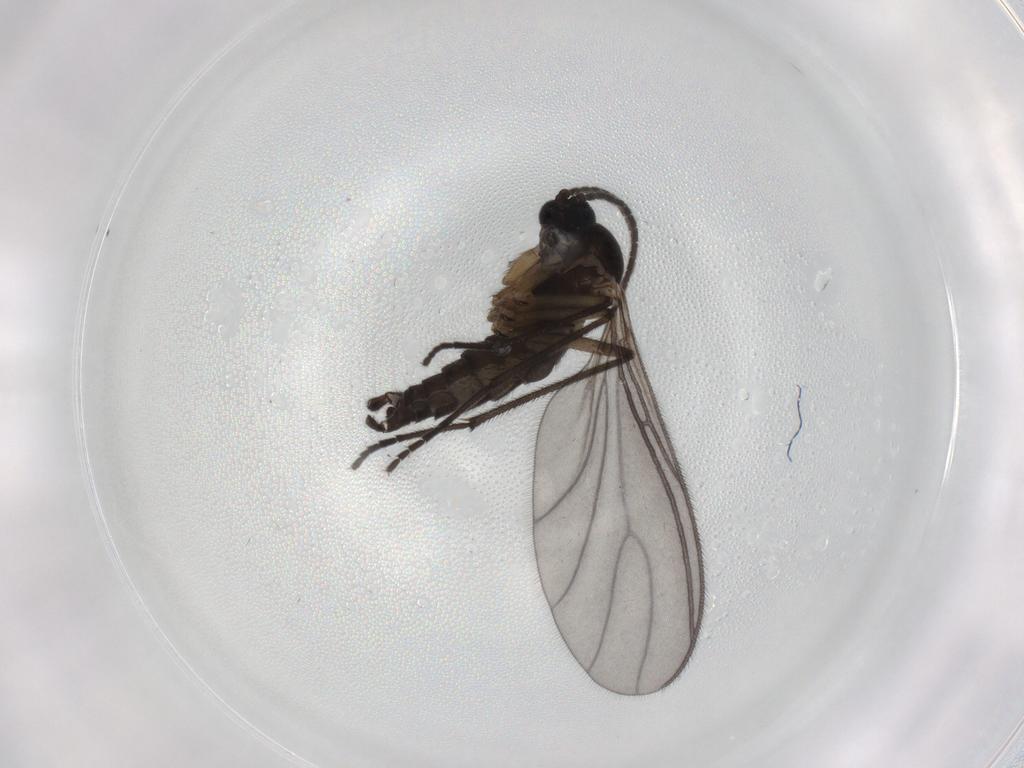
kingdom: Animalia
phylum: Arthropoda
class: Insecta
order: Diptera
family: Sciaridae
